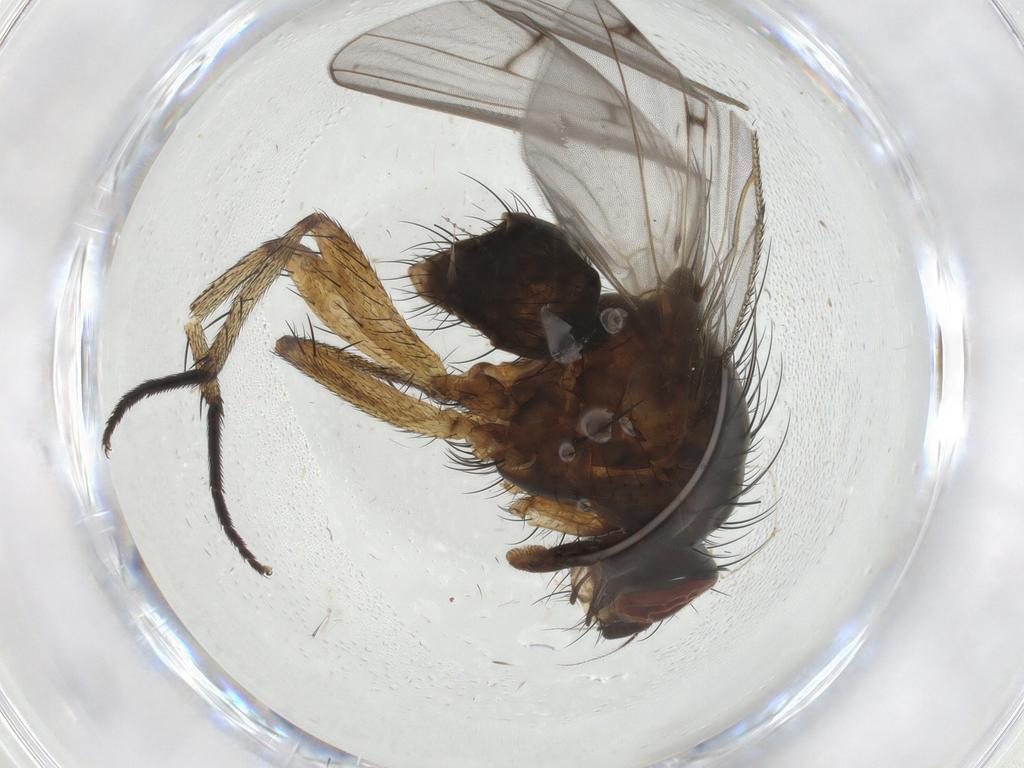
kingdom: Animalia
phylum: Arthropoda
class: Insecta
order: Diptera
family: Anthomyiidae
